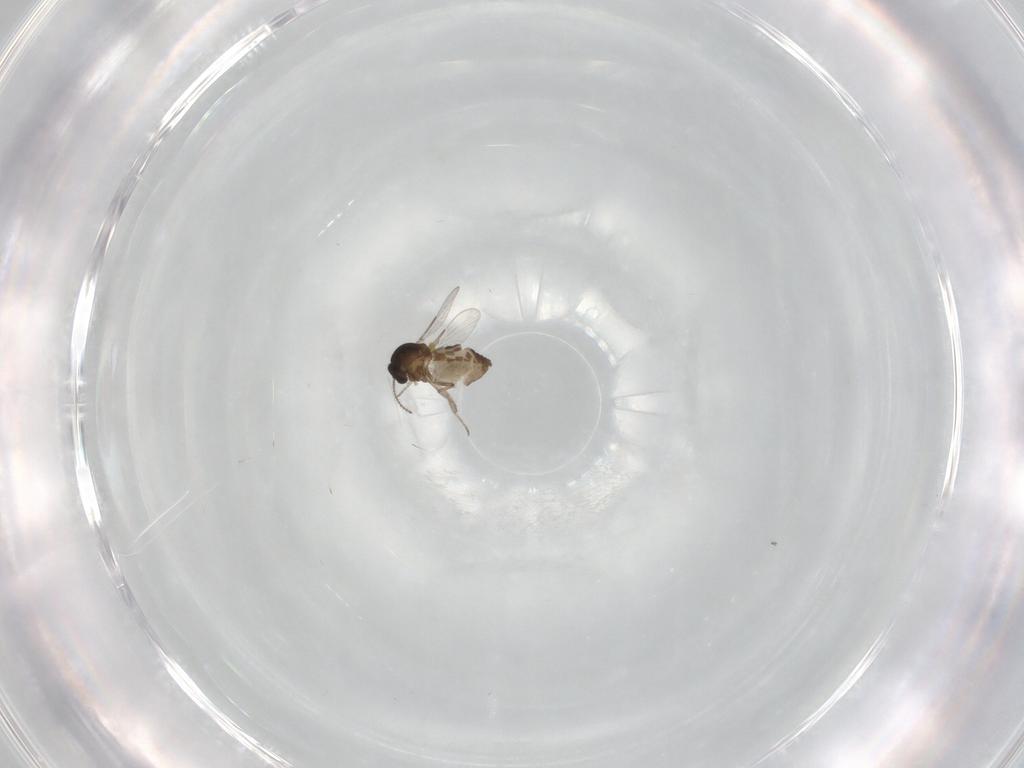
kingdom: Animalia
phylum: Arthropoda
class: Insecta
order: Diptera
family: Ceratopogonidae
